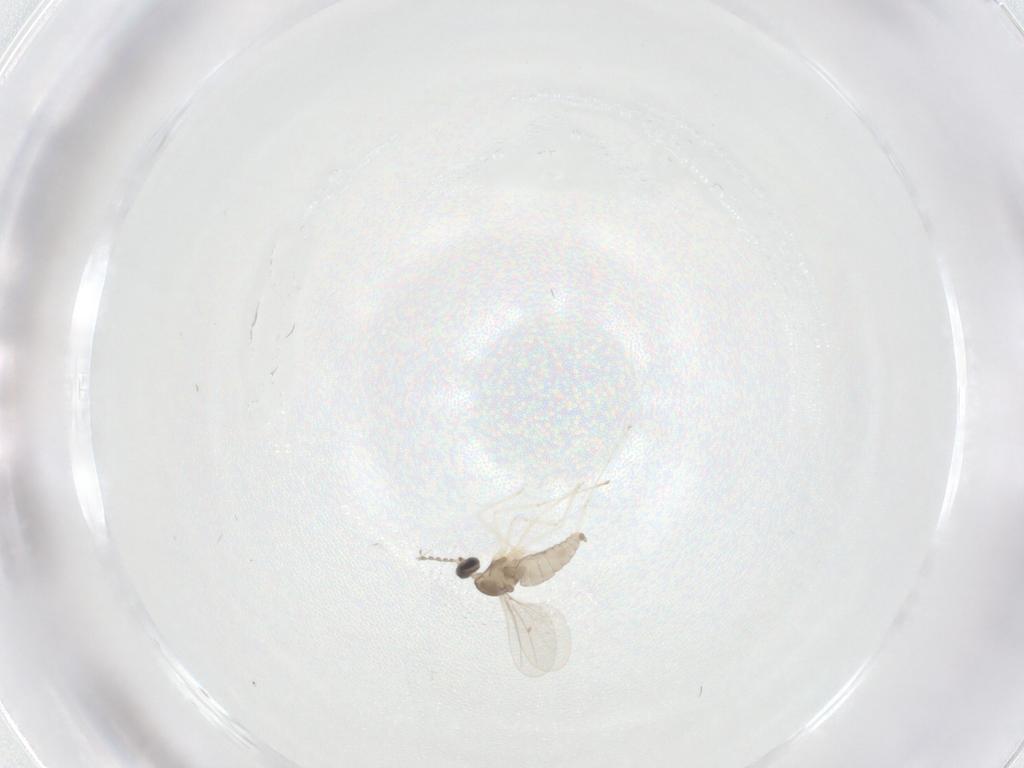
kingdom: Animalia
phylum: Arthropoda
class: Insecta
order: Diptera
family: Cecidomyiidae
